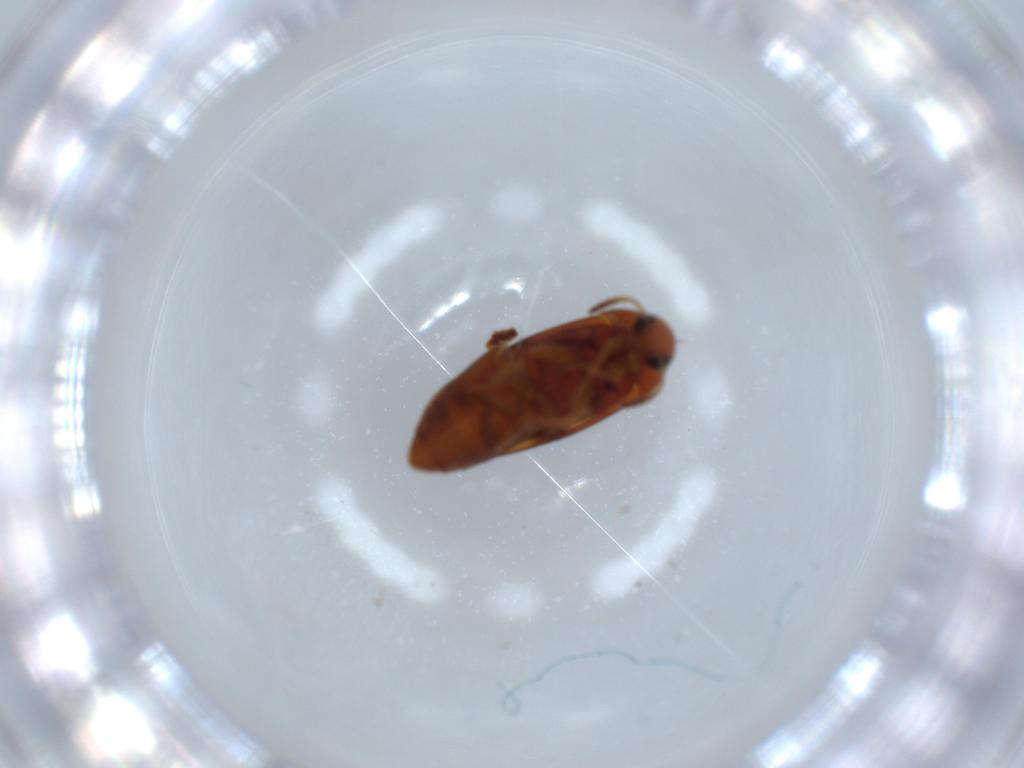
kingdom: Animalia
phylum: Arthropoda
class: Insecta
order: Coleoptera
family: Scraptiidae
